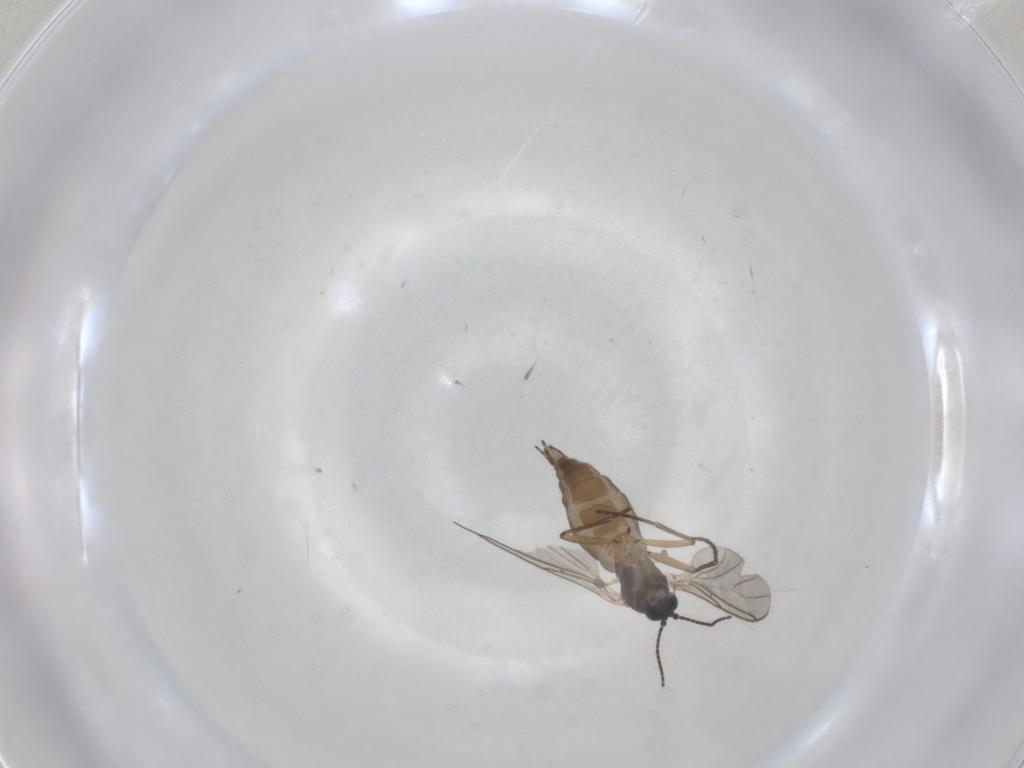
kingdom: Animalia
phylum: Arthropoda
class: Insecta
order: Diptera
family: Chironomidae
